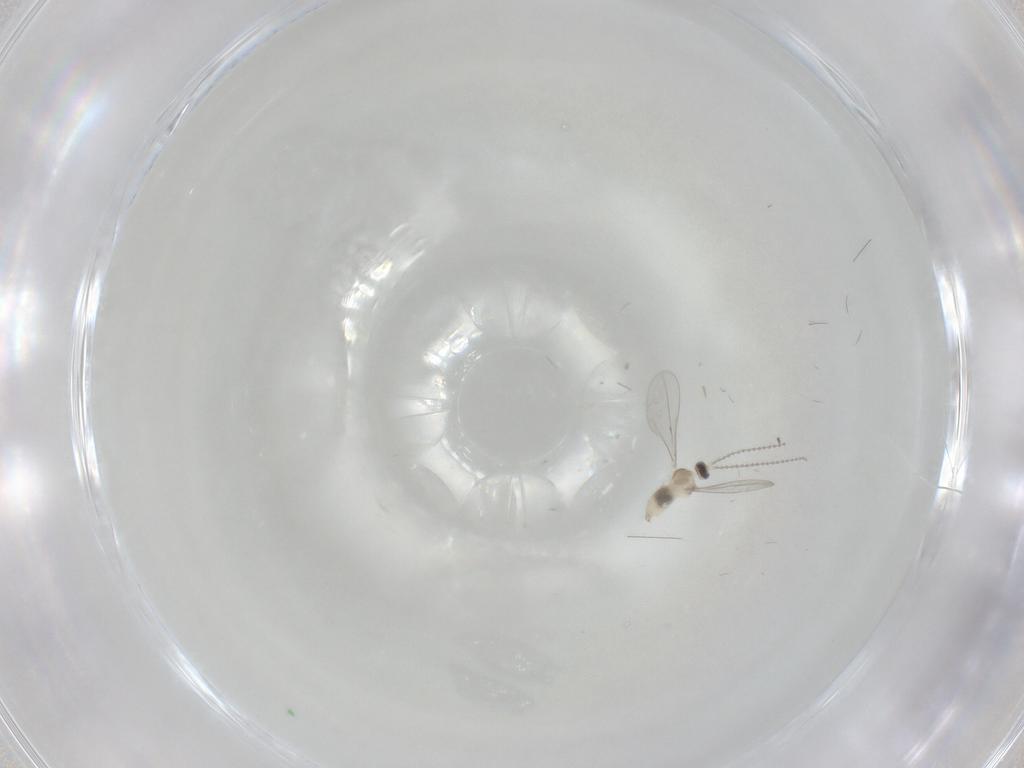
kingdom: Animalia
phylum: Arthropoda
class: Insecta
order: Diptera
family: Cecidomyiidae
